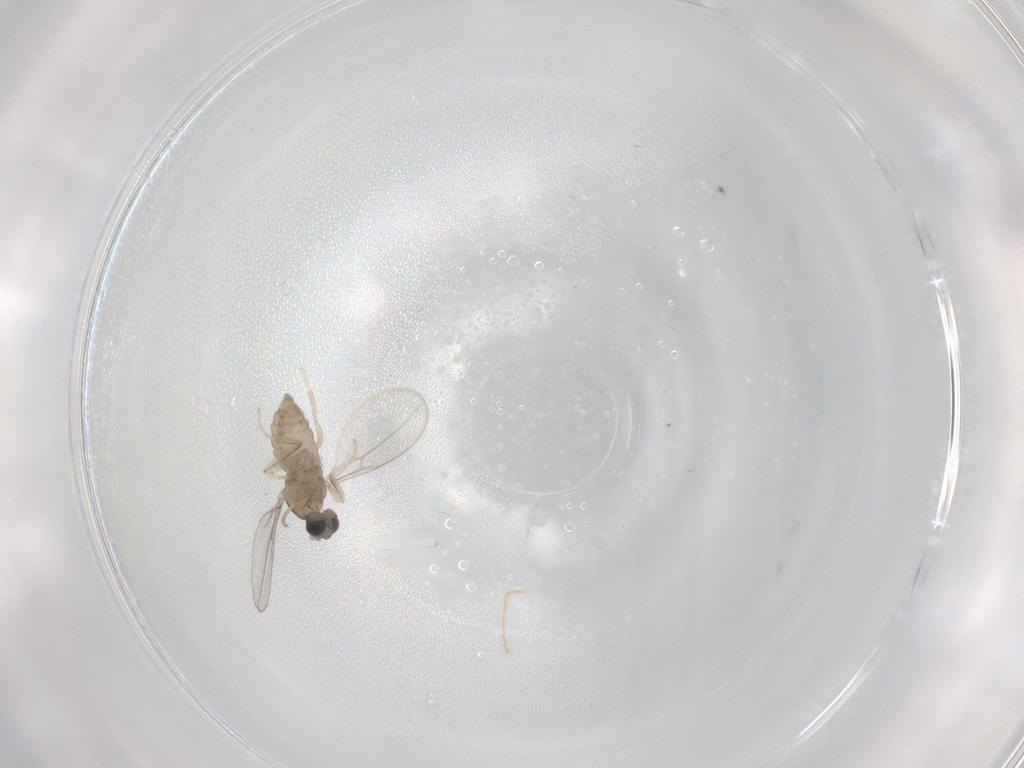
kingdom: Animalia
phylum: Arthropoda
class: Insecta
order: Diptera
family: Cecidomyiidae
